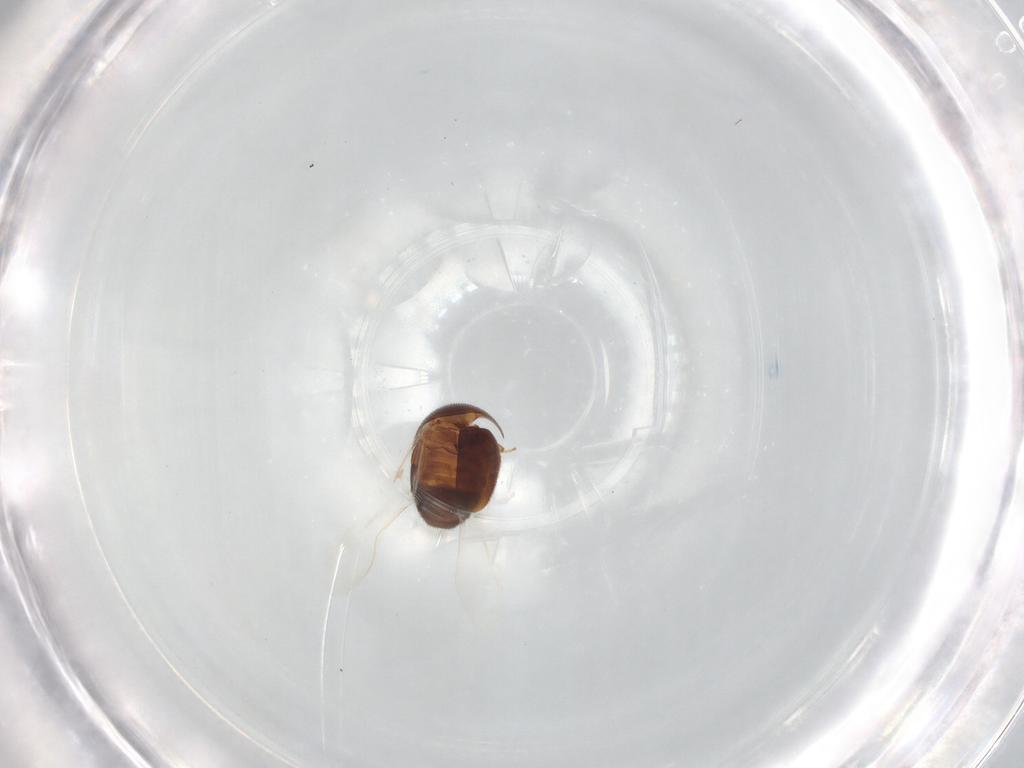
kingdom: Animalia
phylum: Arthropoda
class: Insecta
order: Coleoptera
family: Corylophidae
